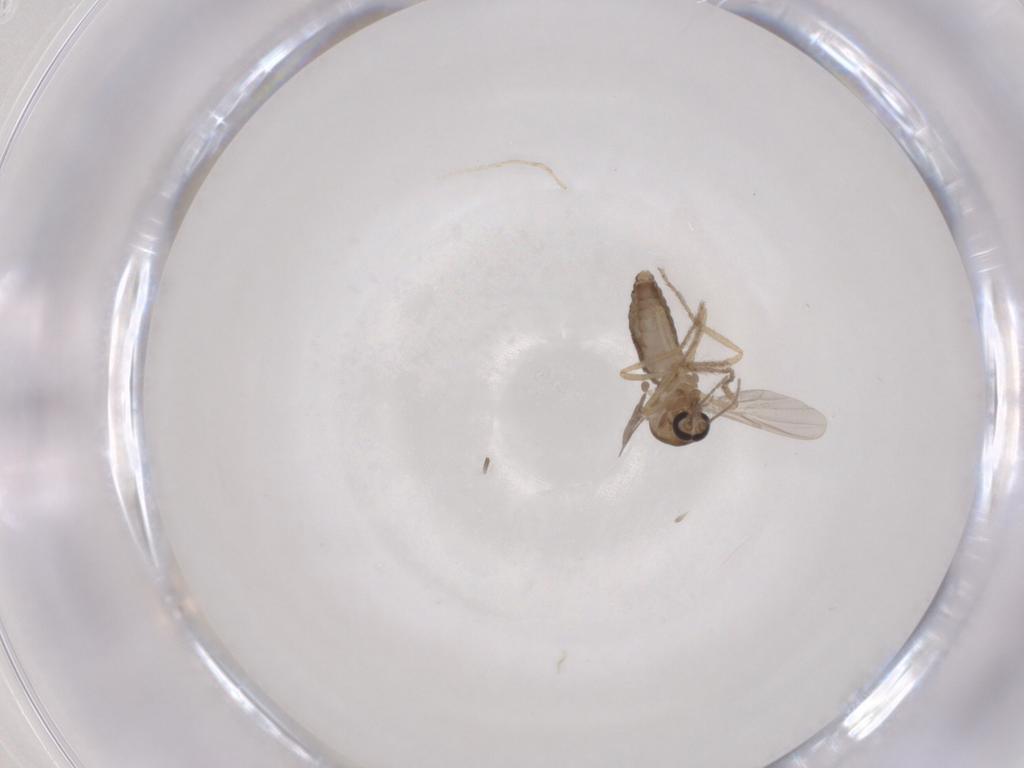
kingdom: Animalia
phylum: Arthropoda
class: Insecta
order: Diptera
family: Ceratopogonidae
